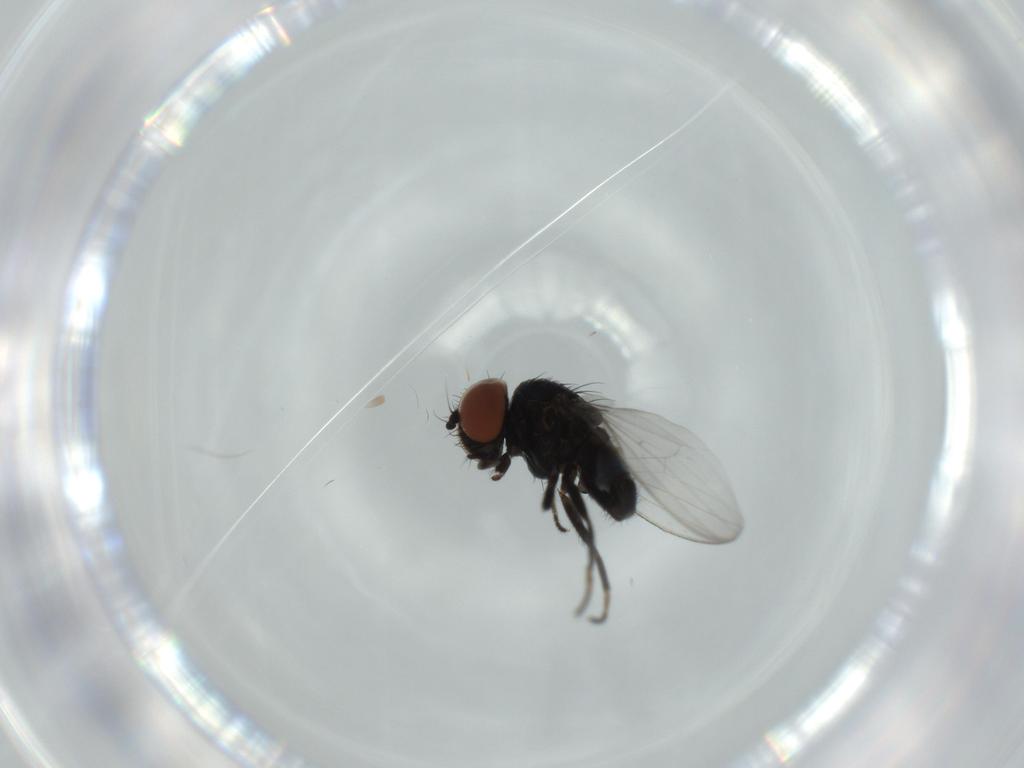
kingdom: Animalia
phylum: Arthropoda
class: Insecta
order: Diptera
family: Milichiidae
